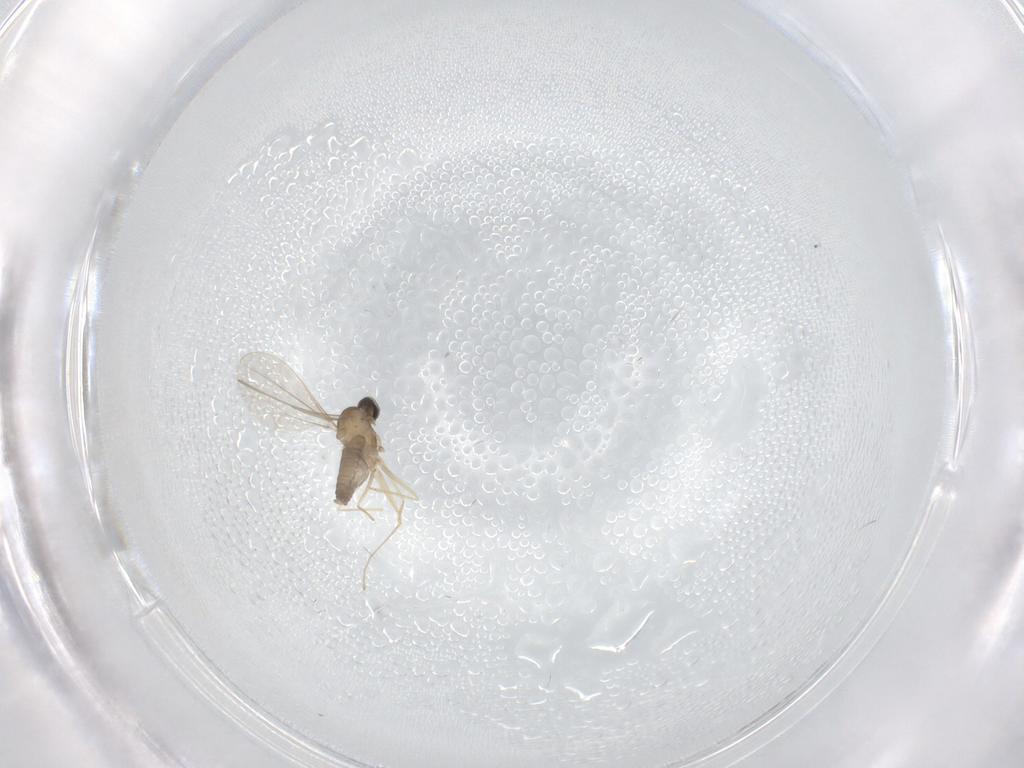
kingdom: Animalia
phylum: Arthropoda
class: Insecta
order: Diptera
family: Cecidomyiidae
